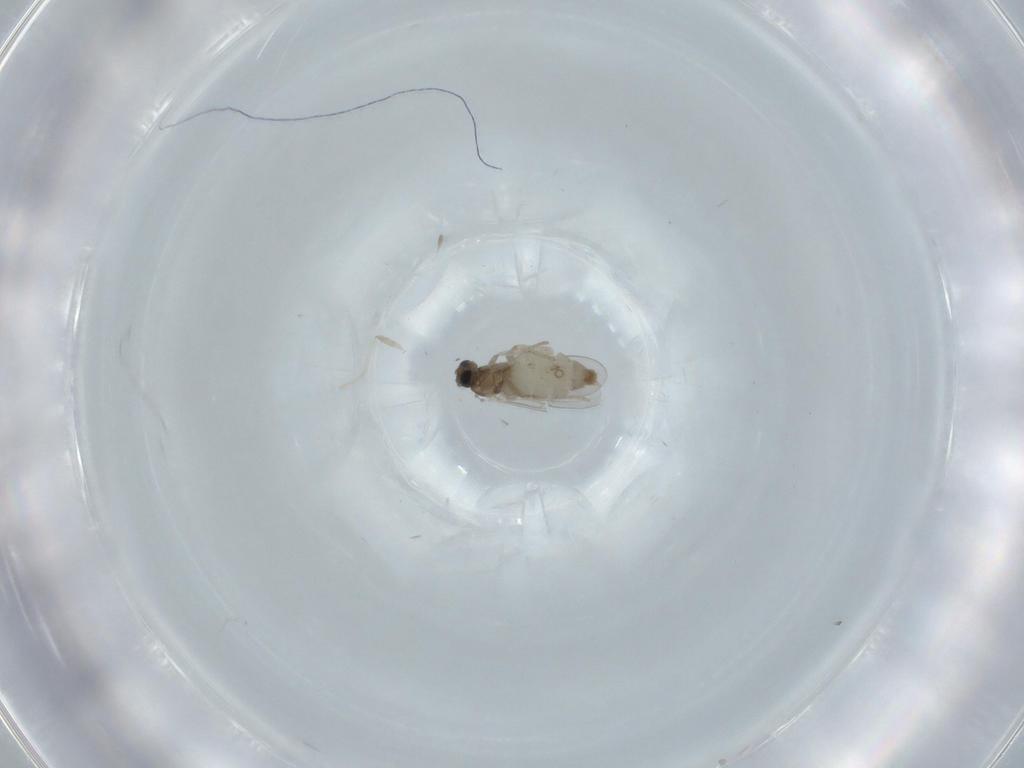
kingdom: Animalia
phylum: Arthropoda
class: Insecta
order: Diptera
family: Cecidomyiidae
